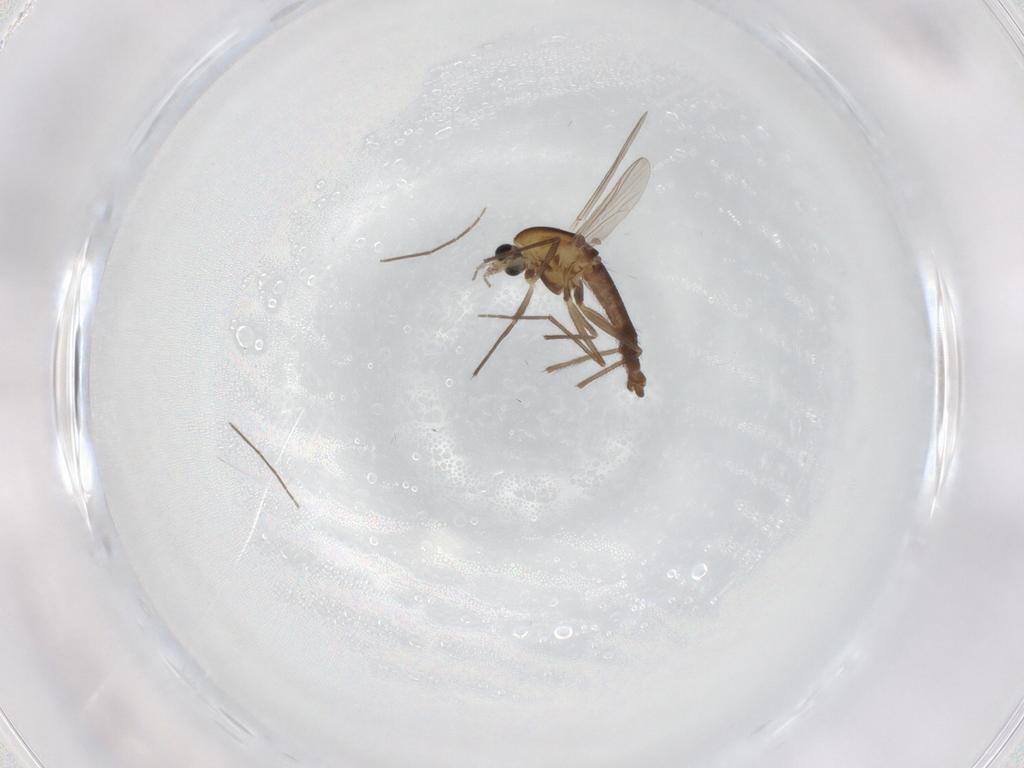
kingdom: Animalia
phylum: Arthropoda
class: Insecta
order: Diptera
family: Chironomidae
